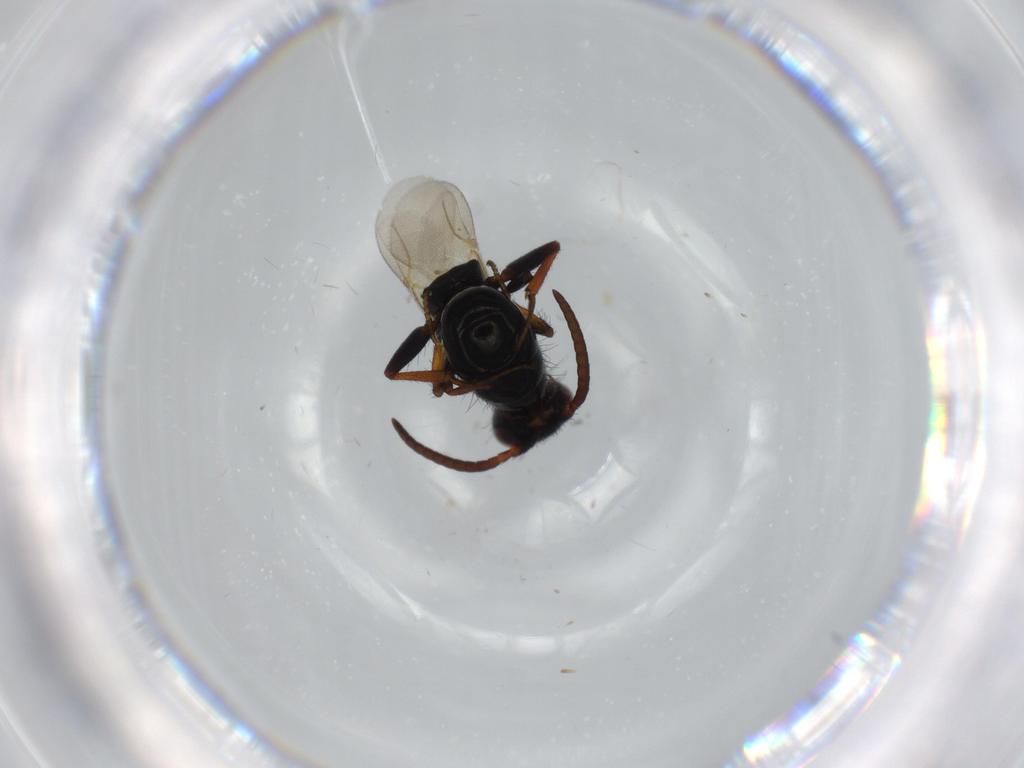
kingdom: Animalia
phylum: Arthropoda
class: Insecta
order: Hymenoptera
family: Bethylidae
